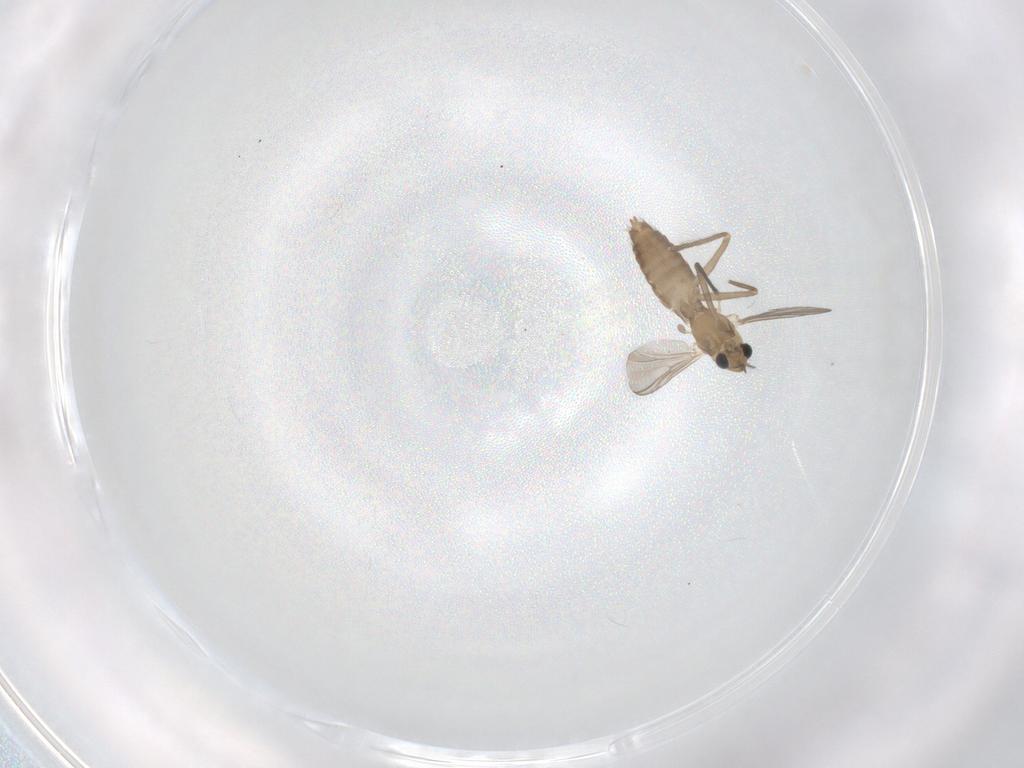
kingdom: Animalia
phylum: Arthropoda
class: Insecta
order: Diptera
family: Chironomidae
